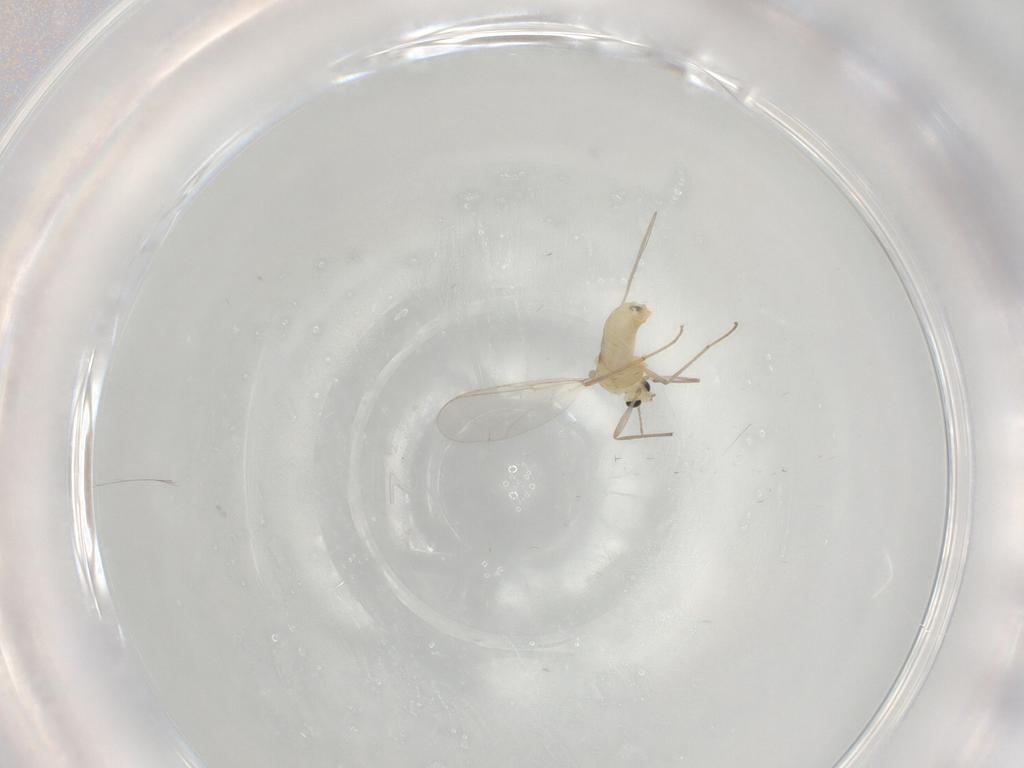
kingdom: Animalia
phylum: Arthropoda
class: Insecta
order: Diptera
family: Cecidomyiidae
